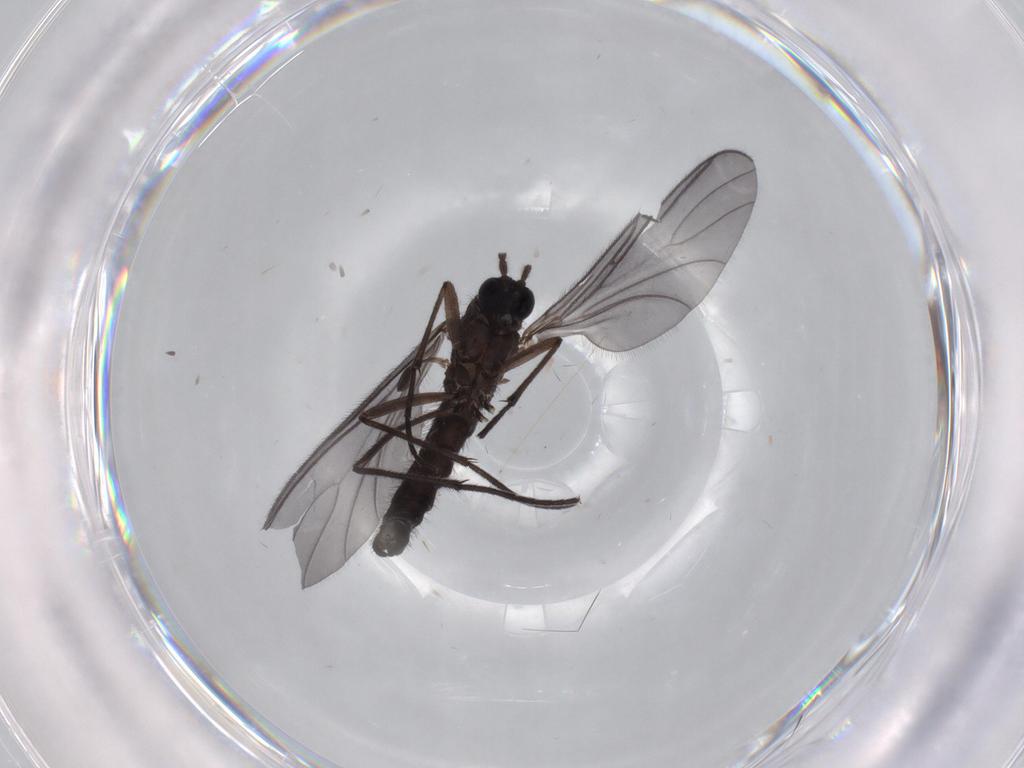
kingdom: Animalia
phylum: Arthropoda
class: Insecta
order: Diptera
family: Sciaridae
